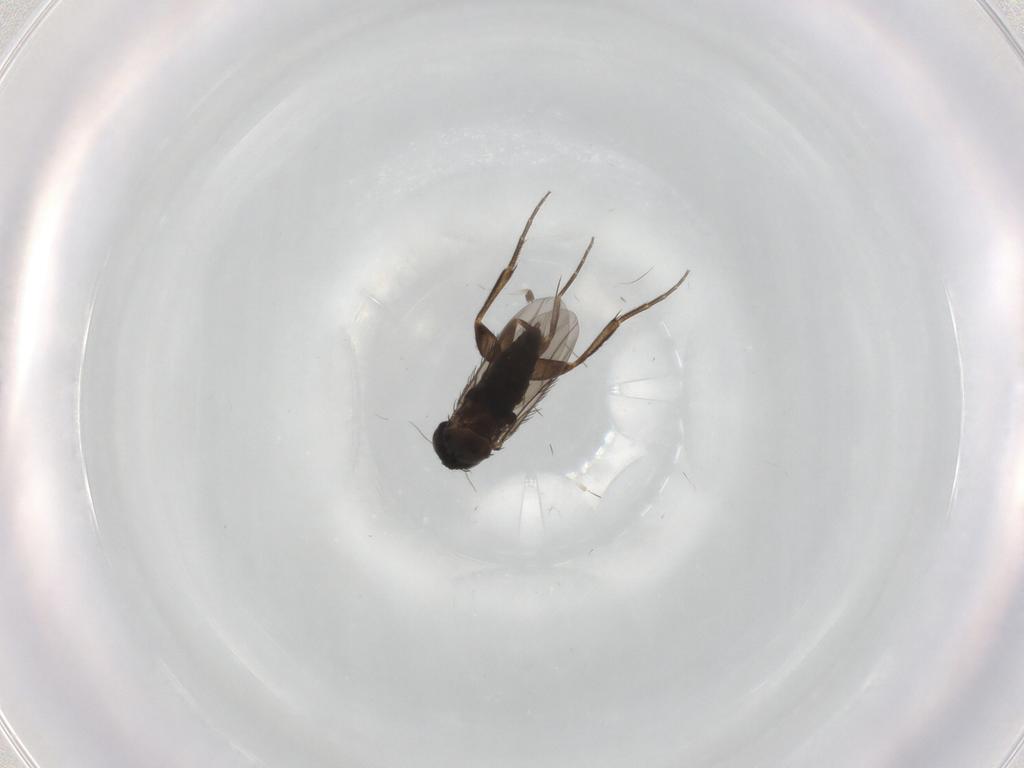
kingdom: Animalia
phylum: Arthropoda
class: Insecta
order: Diptera
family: Phoridae
